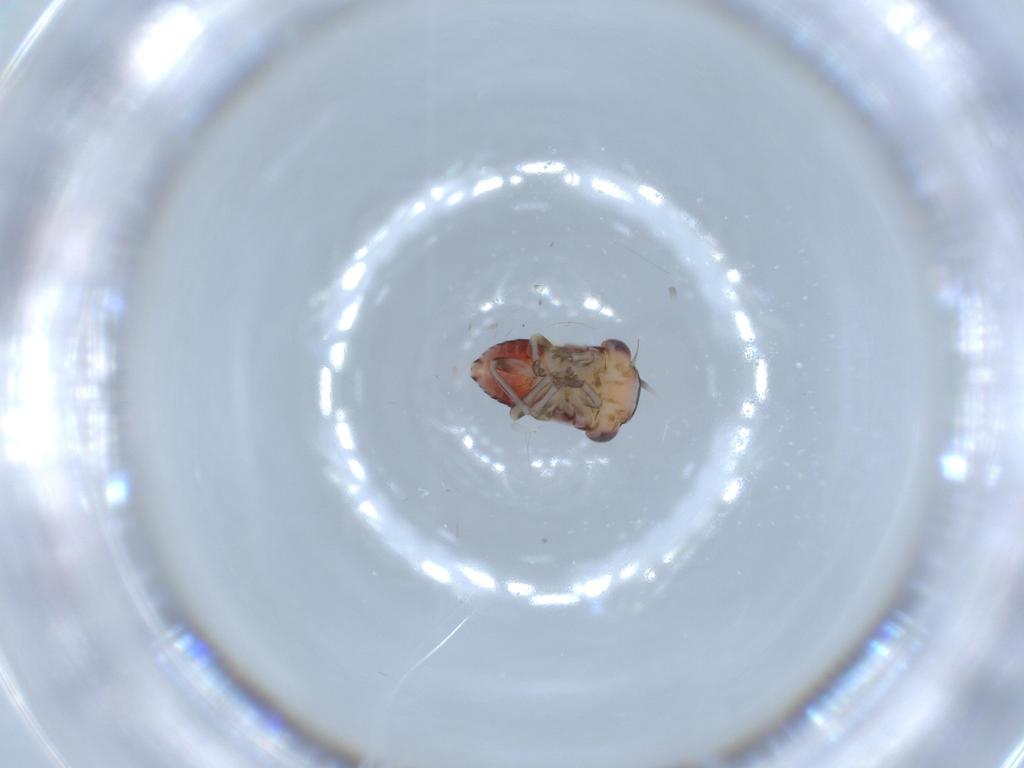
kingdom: Animalia
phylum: Arthropoda
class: Insecta
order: Hemiptera
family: Cicadellidae
